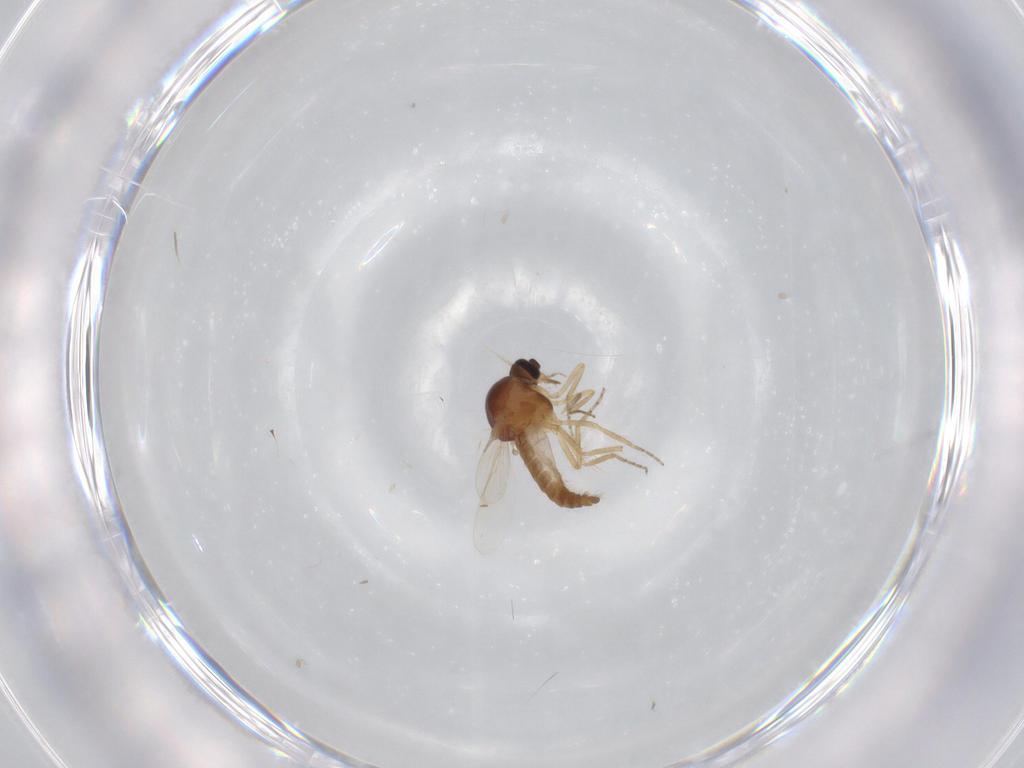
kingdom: Animalia
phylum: Arthropoda
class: Insecta
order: Diptera
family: Ceratopogonidae
